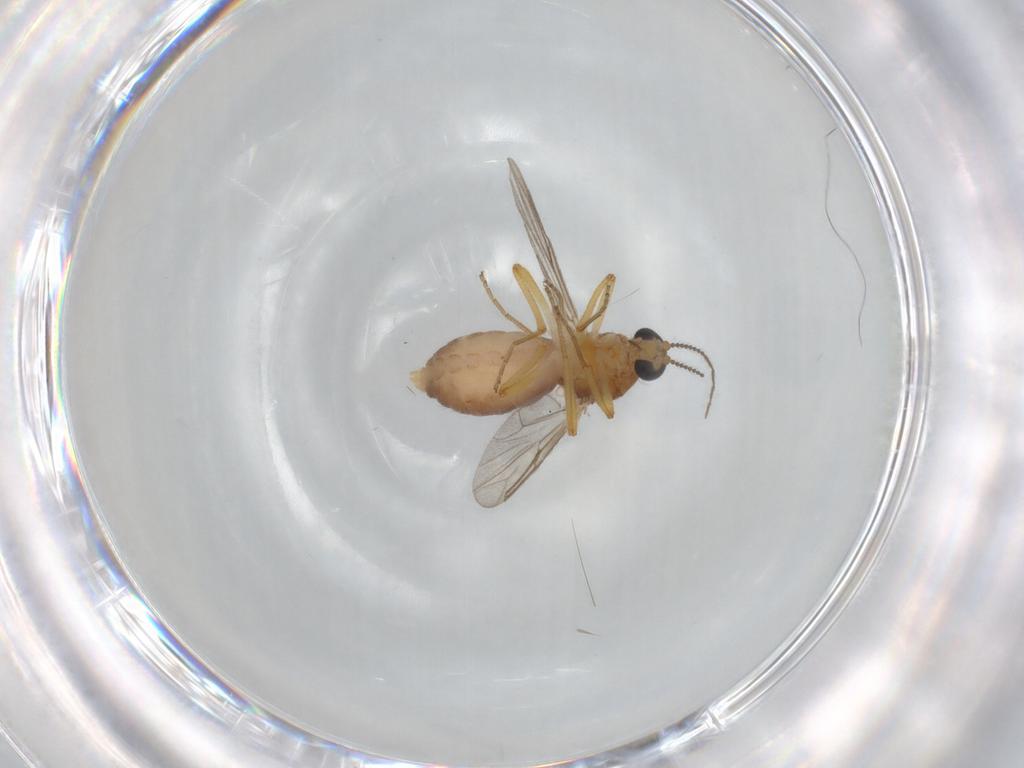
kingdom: Animalia
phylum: Arthropoda
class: Insecta
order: Diptera
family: Ceratopogonidae
